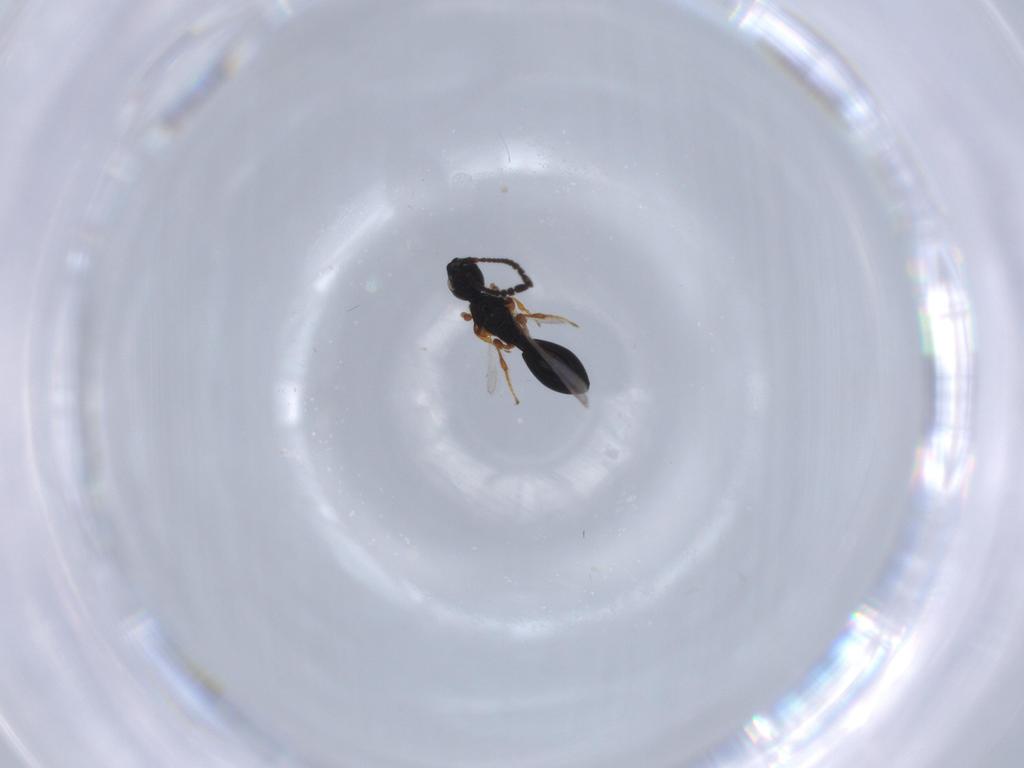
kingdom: Animalia
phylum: Arthropoda
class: Insecta
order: Hymenoptera
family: Diapriidae
